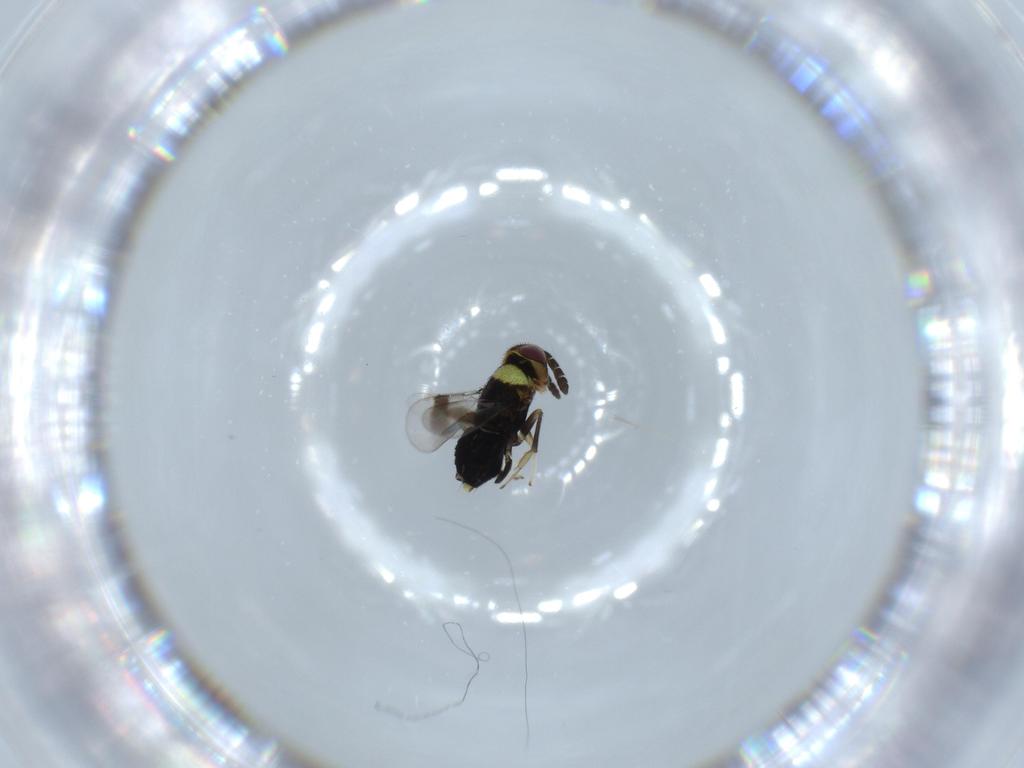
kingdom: Animalia
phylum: Arthropoda
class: Insecta
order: Hymenoptera
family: Aphelinidae
